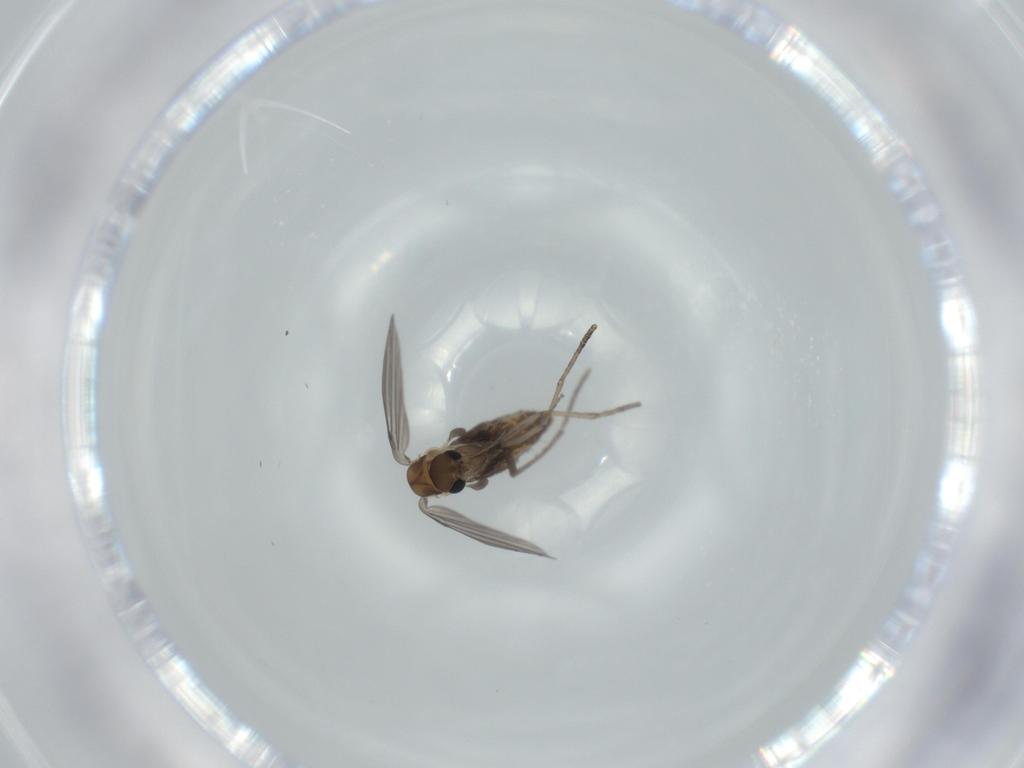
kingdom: Animalia
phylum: Arthropoda
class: Insecta
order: Diptera
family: Psychodidae
